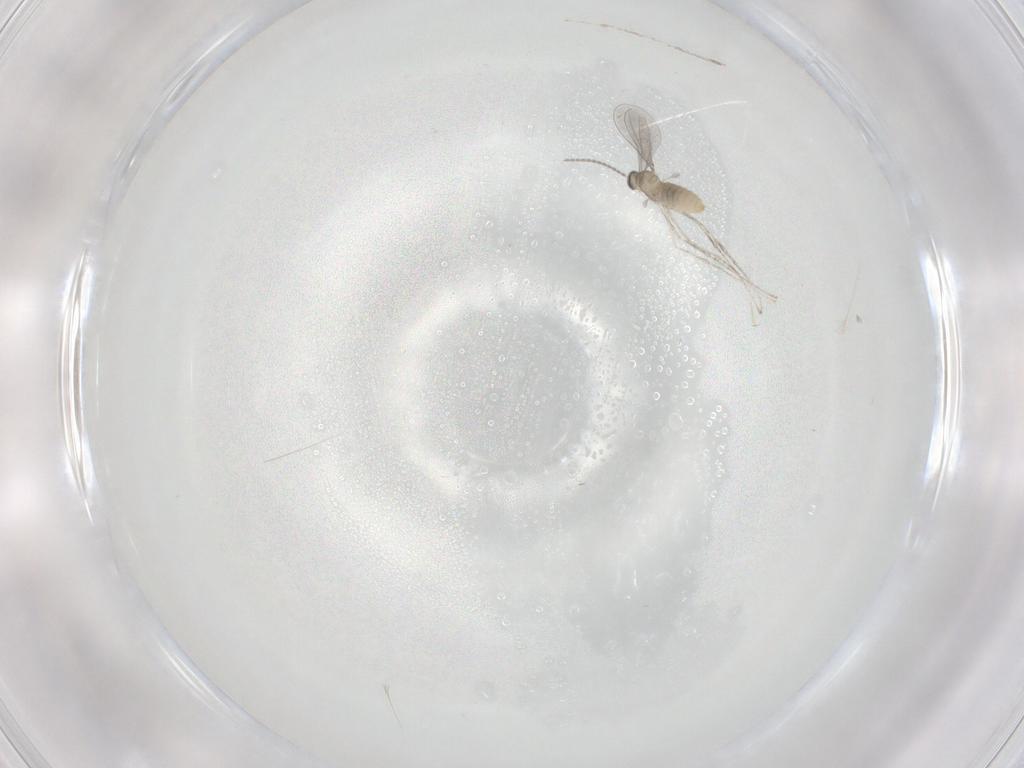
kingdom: Animalia
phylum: Arthropoda
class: Insecta
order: Diptera
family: Cecidomyiidae
